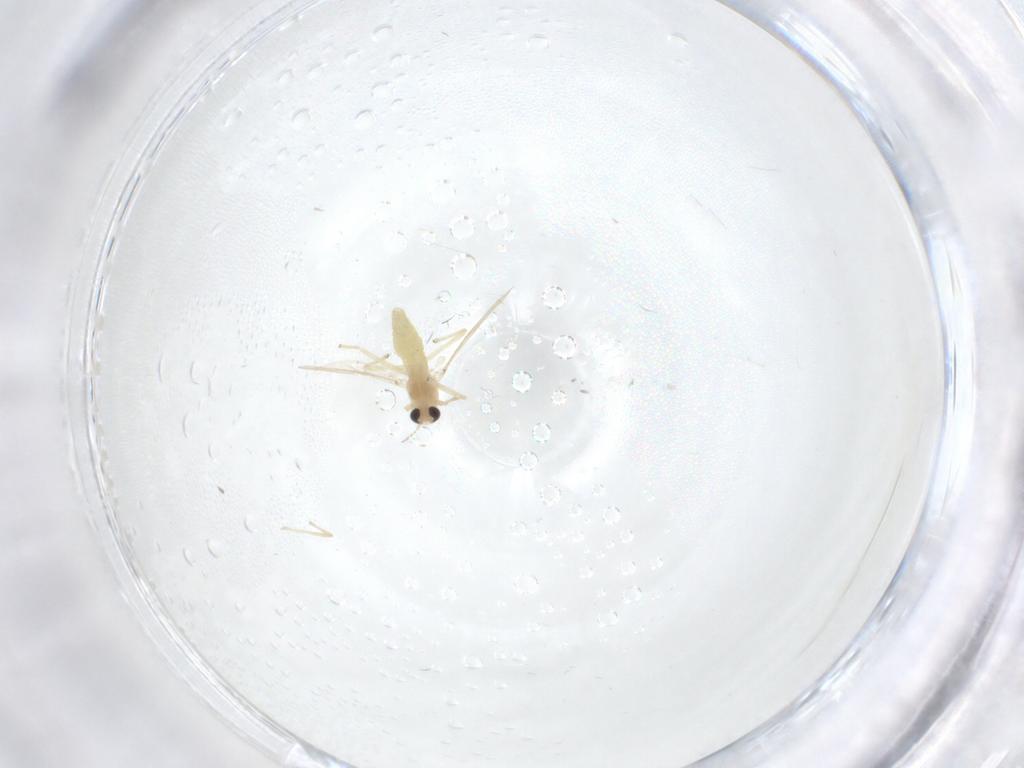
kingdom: Animalia
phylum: Arthropoda
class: Insecta
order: Diptera
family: Chironomidae
